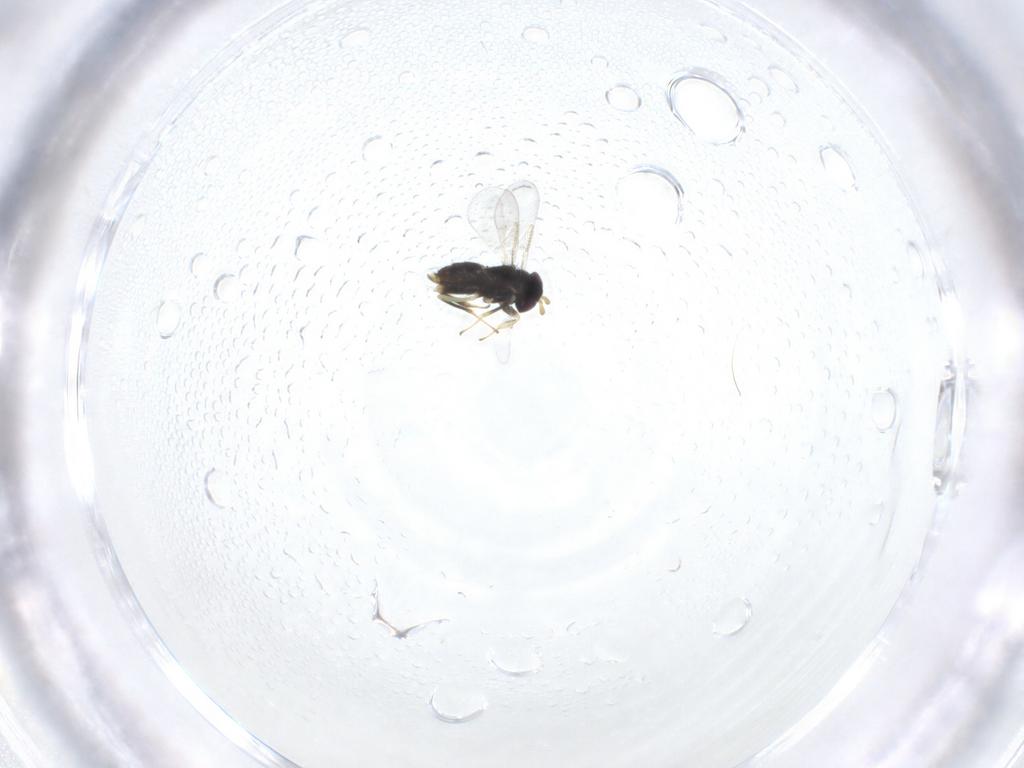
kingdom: Animalia
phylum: Arthropoda
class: Insecta
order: Hymenoptera
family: Aphelinidae
